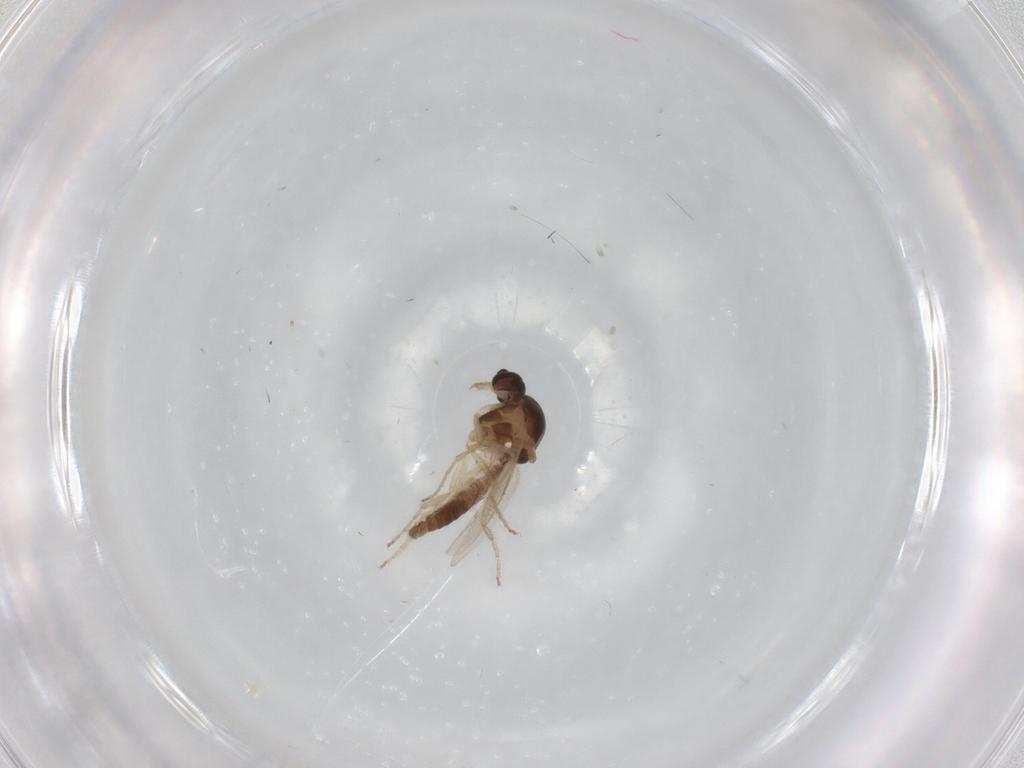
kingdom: Animalia
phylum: Arthropoda
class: Insecta
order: Diptera
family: Ceratopogonidae
